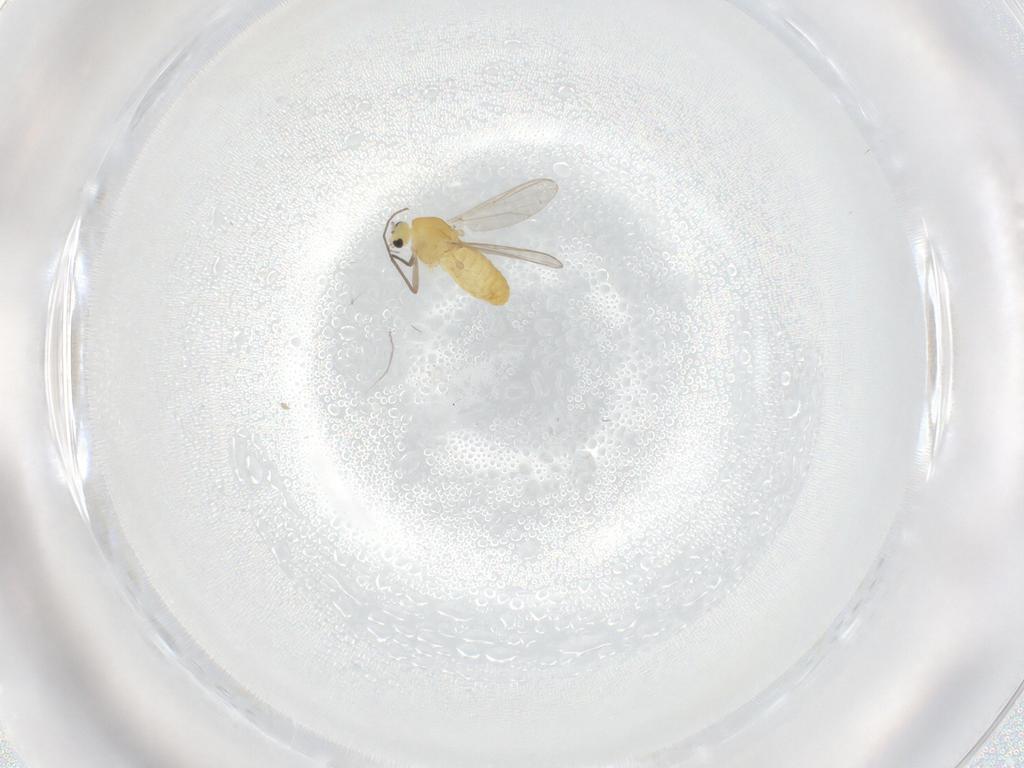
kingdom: Animalia
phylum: Arthropoda
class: Insecta
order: Diptera
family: Chironomidae
